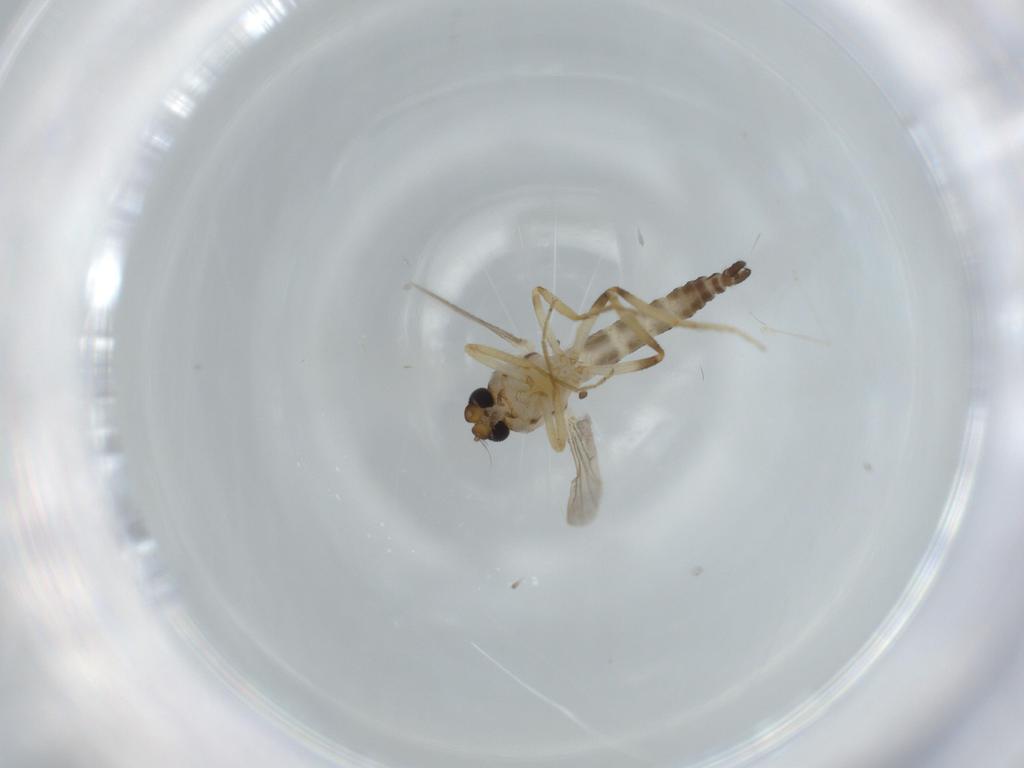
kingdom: Animalia
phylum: Arthropoda
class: Insecta
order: Diptera
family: Ceratopogonidae
